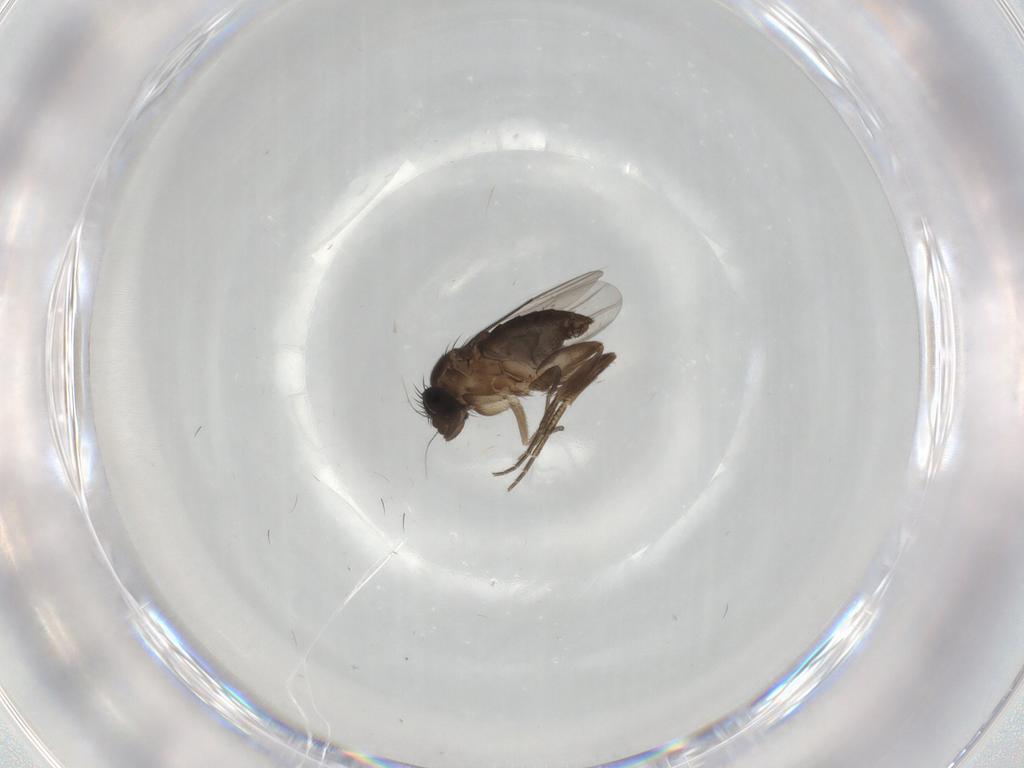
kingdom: Animalia
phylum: Arthropoda
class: Insecta
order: Diptera
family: Phoridae
